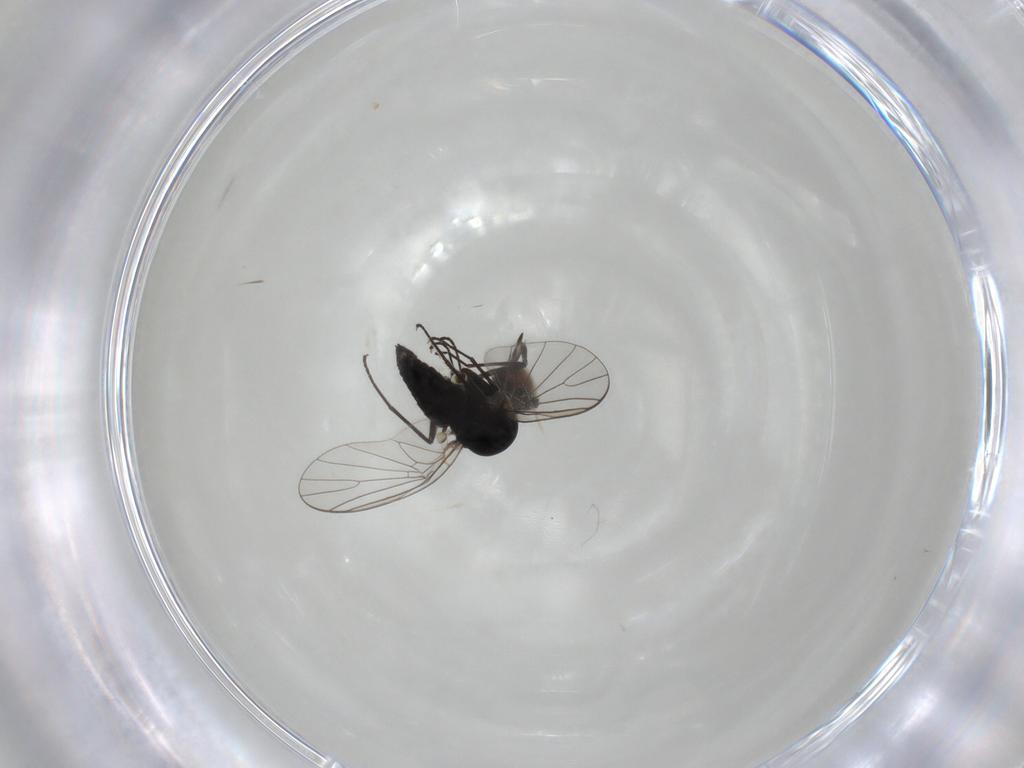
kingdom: Animalia
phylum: Arthropoda
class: Insecta
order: Diptera
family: Bombyliidae
